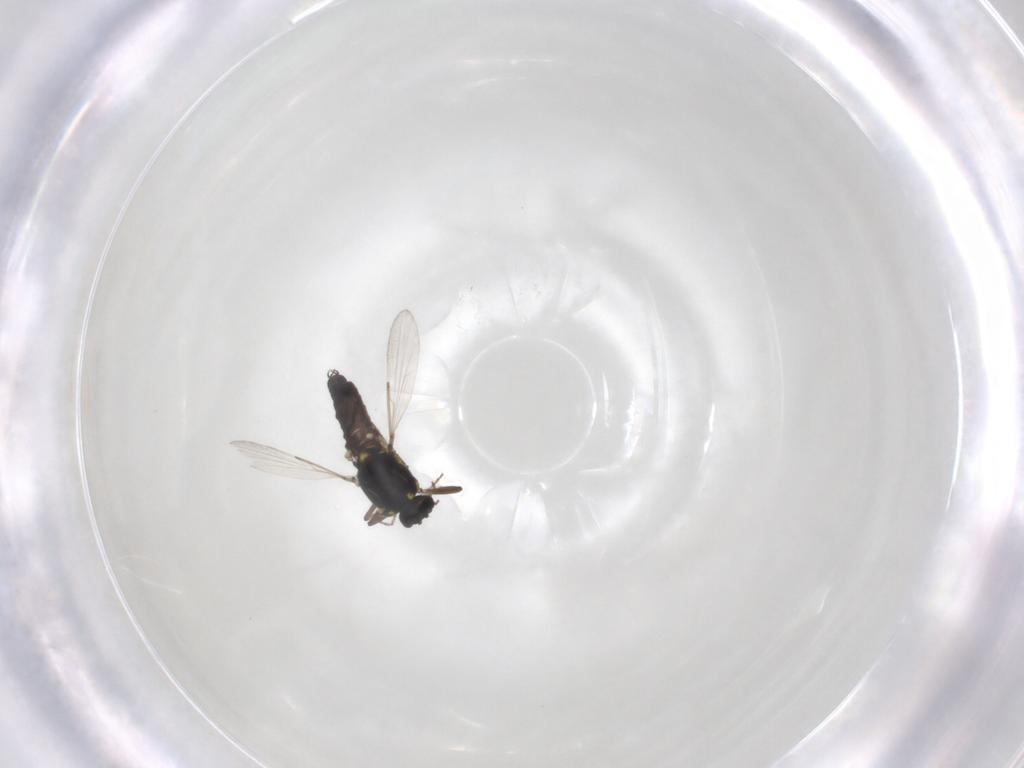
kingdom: Animalia
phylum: Arthropoda
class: Insecta
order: Diptera
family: Ceratopogonidae
